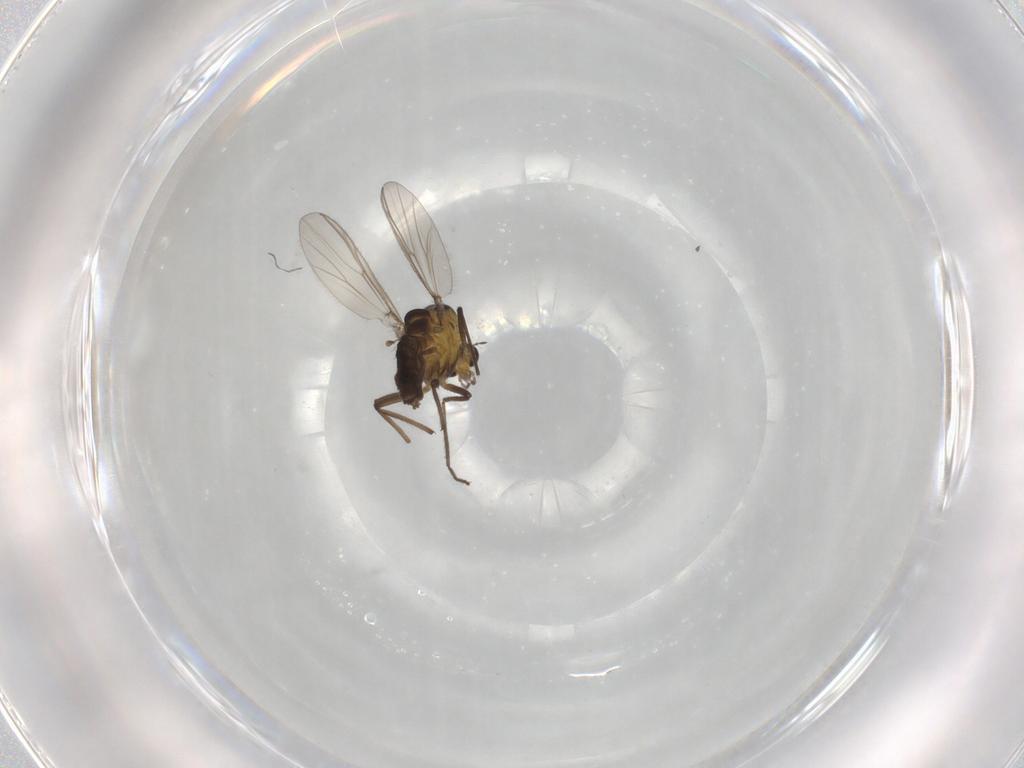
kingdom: Animalia
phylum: Arthropoda
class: Insecta
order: Diptera
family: Chironomidae
